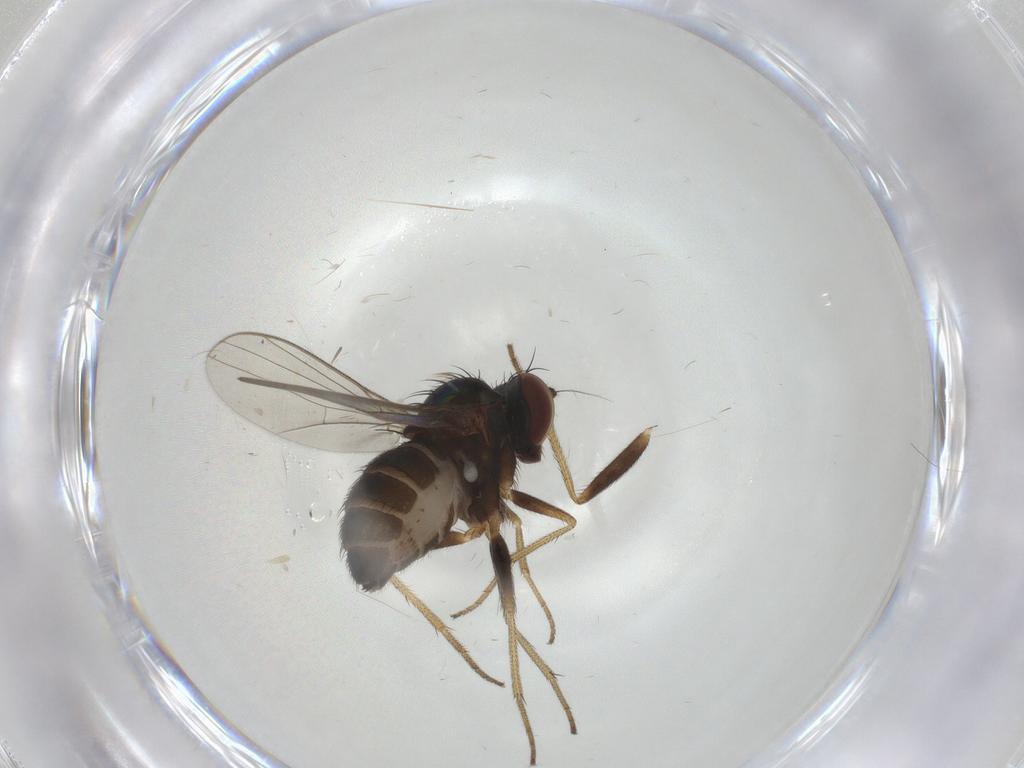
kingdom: Animalia
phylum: Arthropoda
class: Insecta
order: Diptera
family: Dolichopodidae
